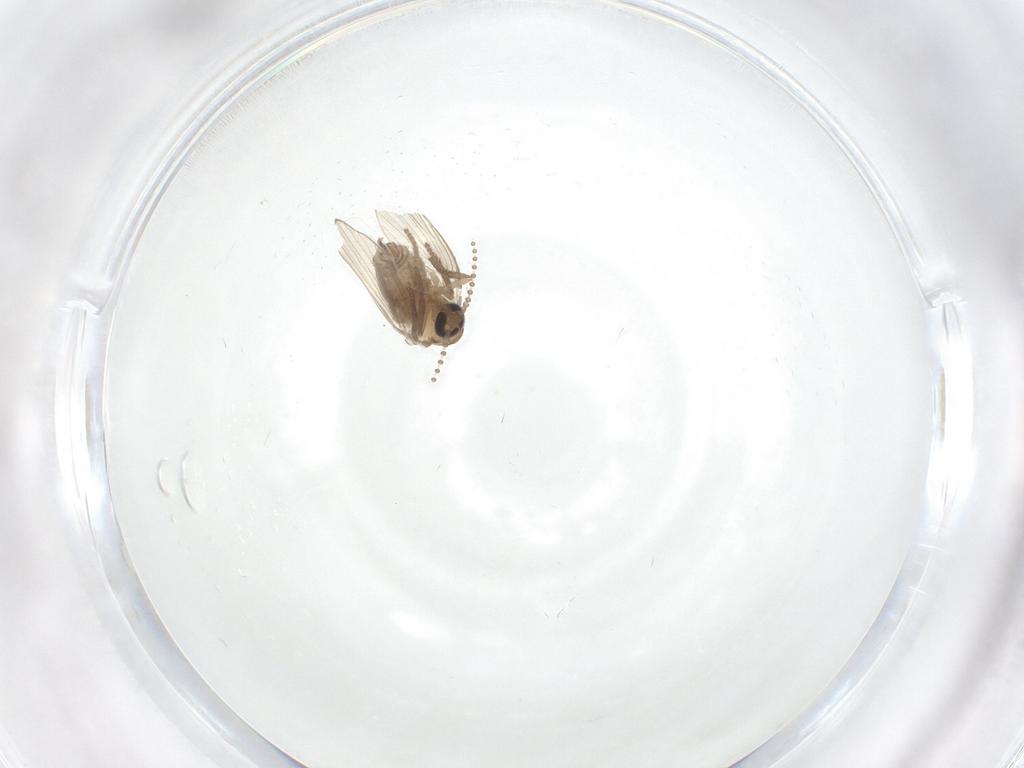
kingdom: Animalia
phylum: Arthropoda
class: Insecta
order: Diptera
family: Psychodidae
